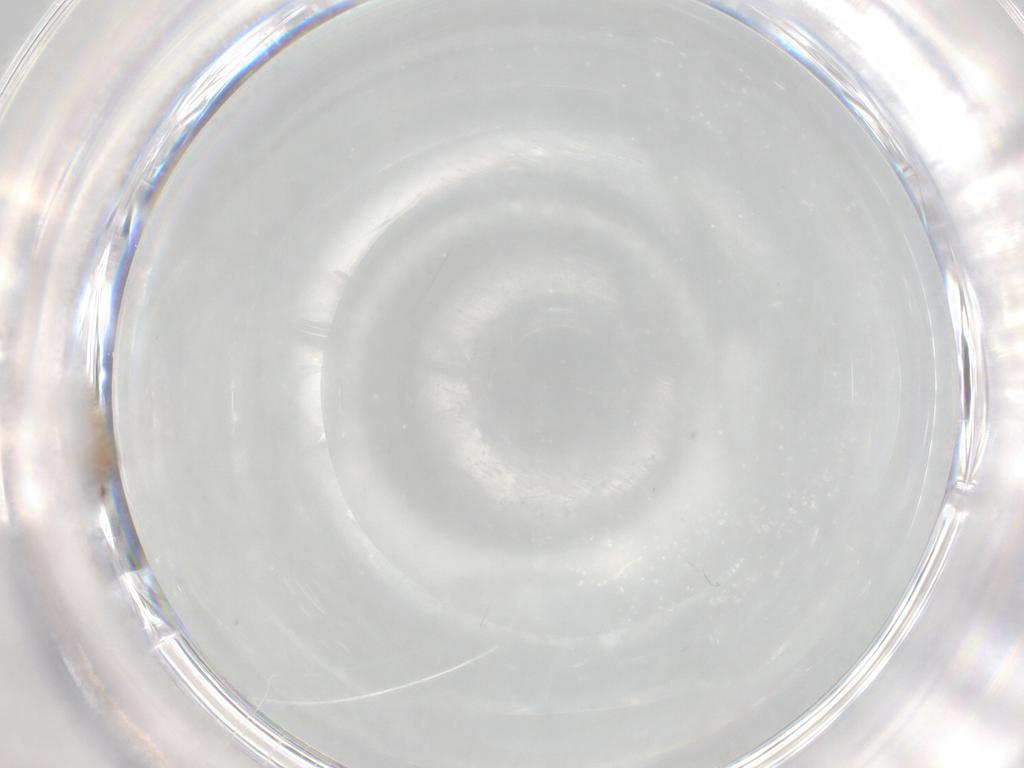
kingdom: Animalia
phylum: Arthropoda
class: Insecta
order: Diptera
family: Cecidomyiidae
